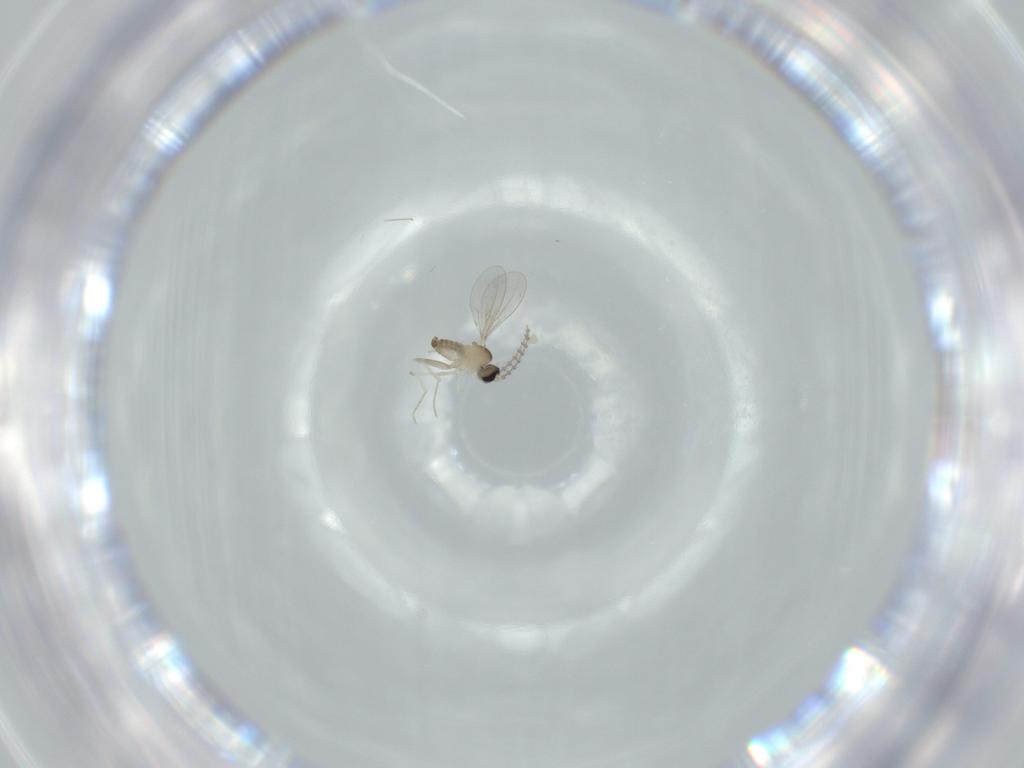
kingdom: Animalia
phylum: Arthropoda
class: Insecta
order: Diptera
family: Cecidomyiidae
